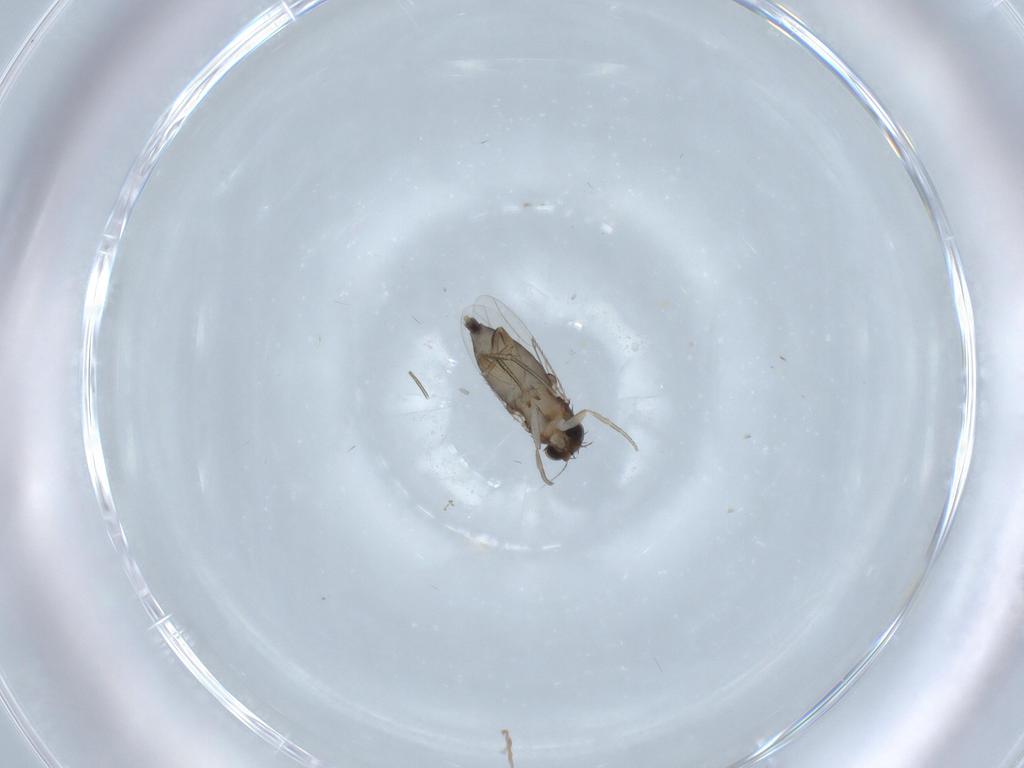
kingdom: Animalia
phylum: Arthropoda
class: Insecta
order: Diptera
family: Phoridae
